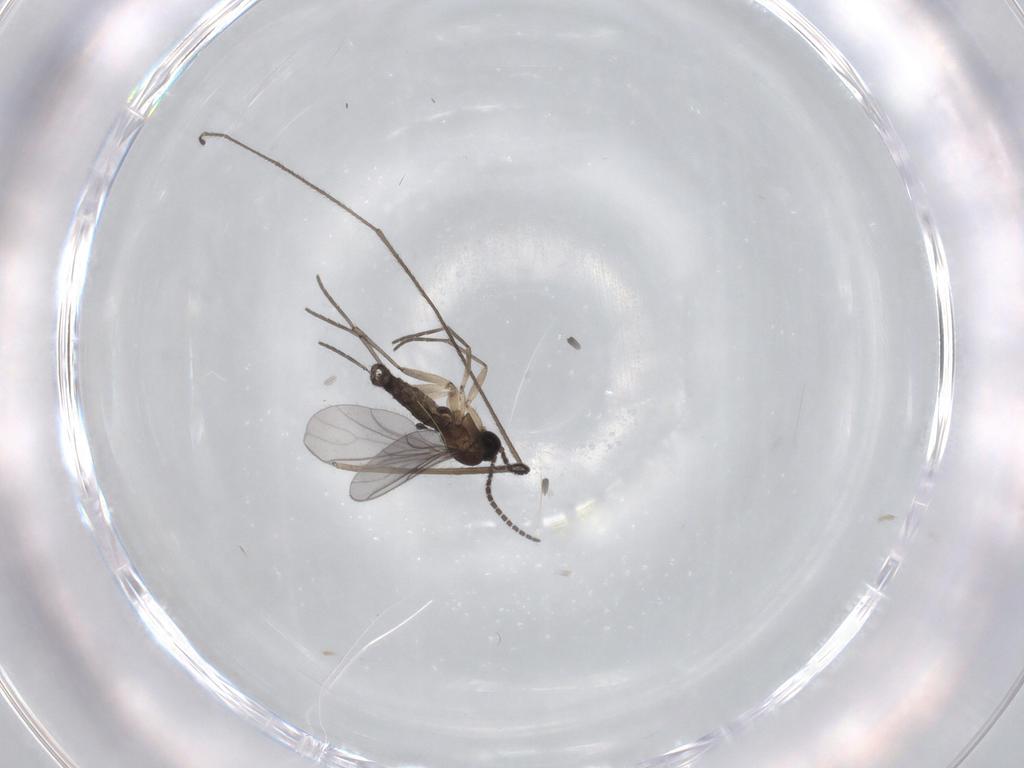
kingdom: Animalia
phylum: Arthropoda
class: Insecta
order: Diptera
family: Sciaridae
